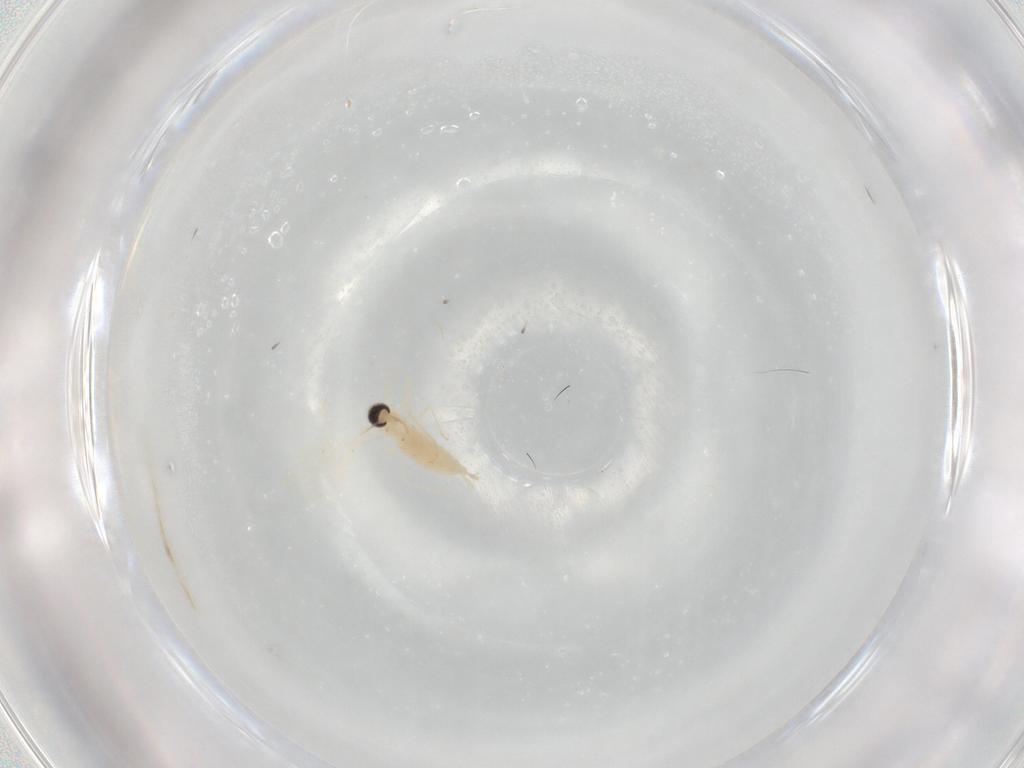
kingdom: Animalia
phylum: Arthropoda
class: Insecta
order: Diptera
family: Cecidomyiidae
